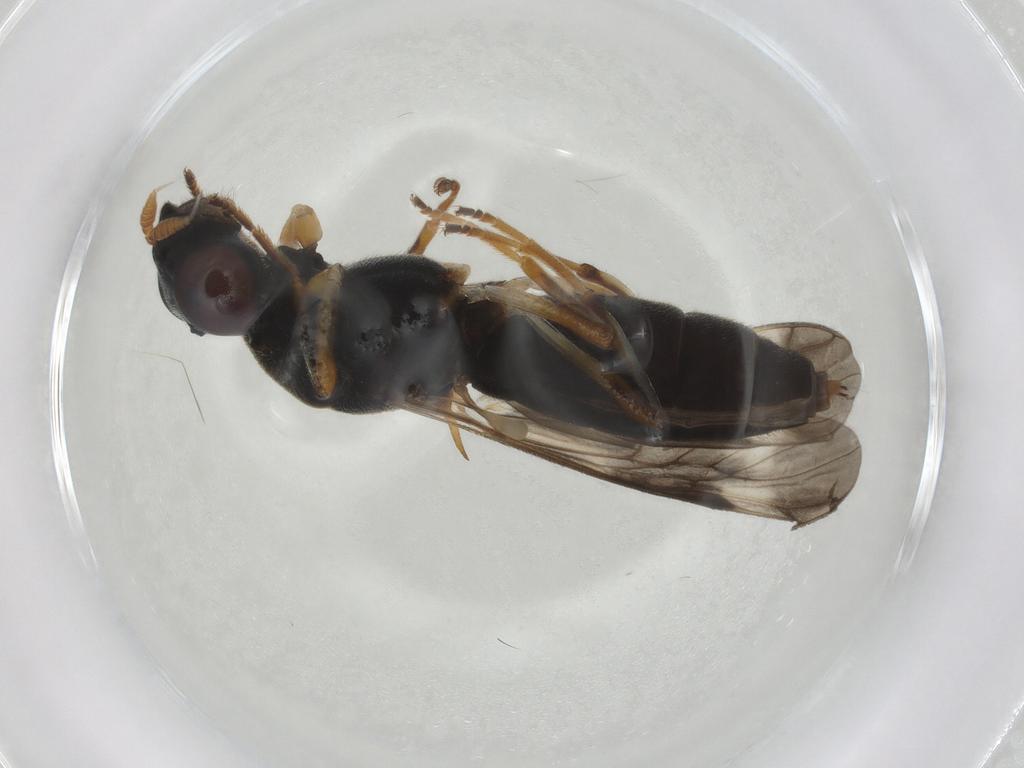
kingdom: Animalia
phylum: Arthropoda
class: Insecta
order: Diptera
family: Stratiomyidae
